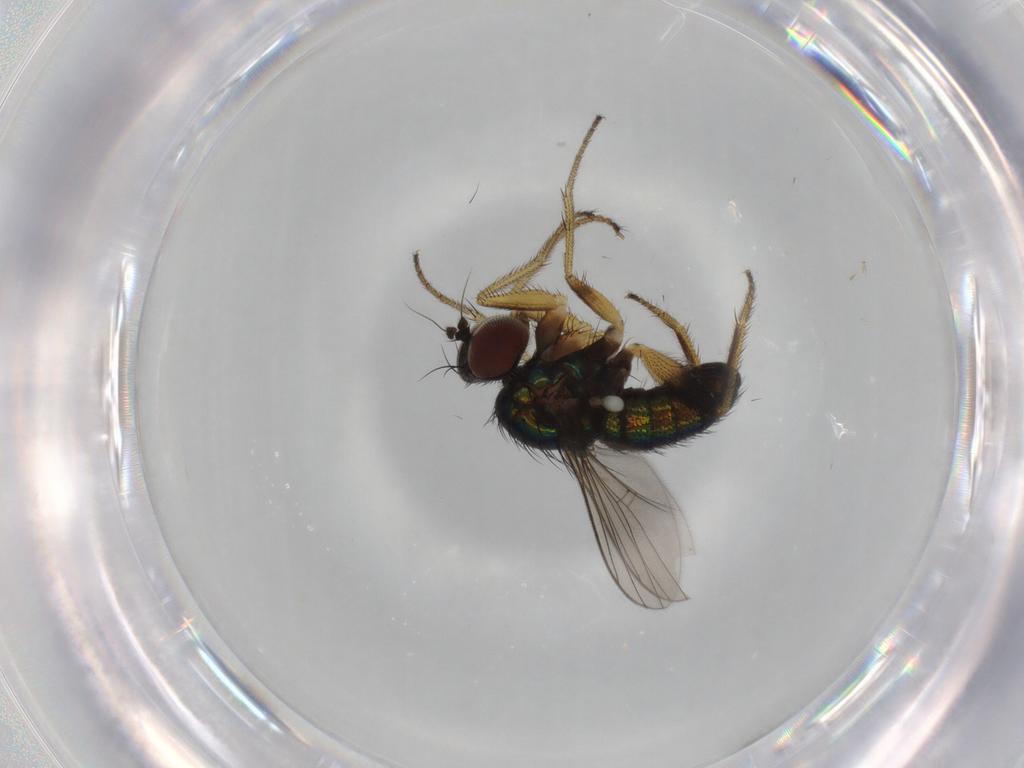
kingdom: Animalia
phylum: Arthropoda
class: Insecta
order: Diptera
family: Dolichopodidae
